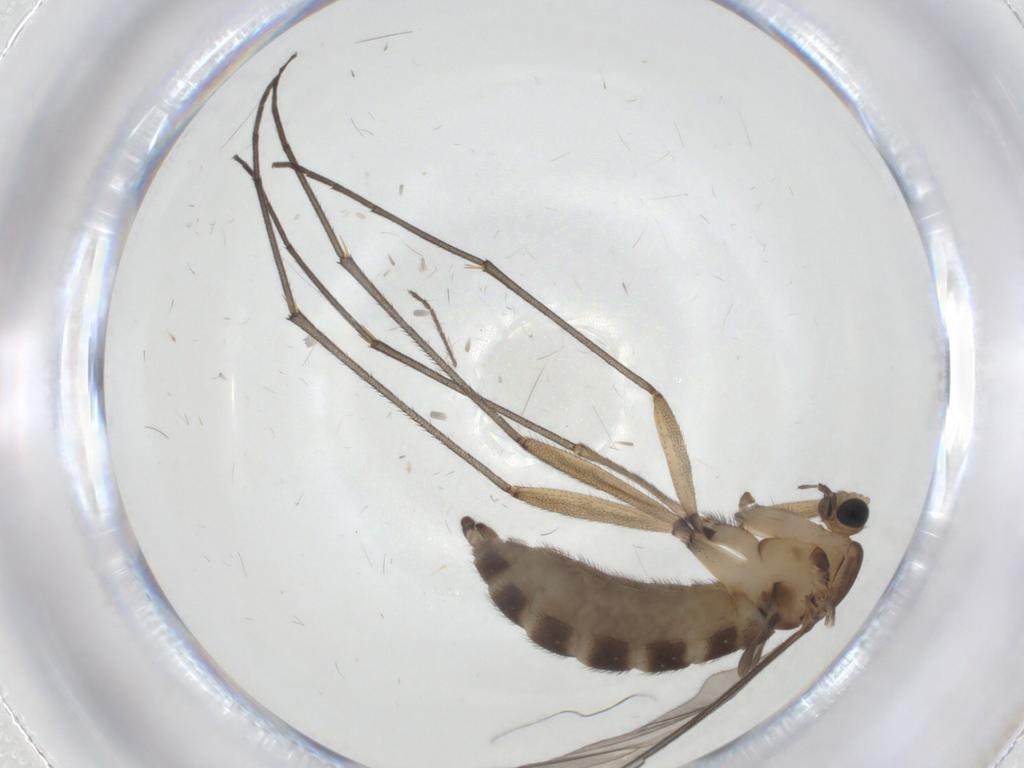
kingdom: Animalia
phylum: Arthropoda
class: Insecta
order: Diptera
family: Sciaridae
